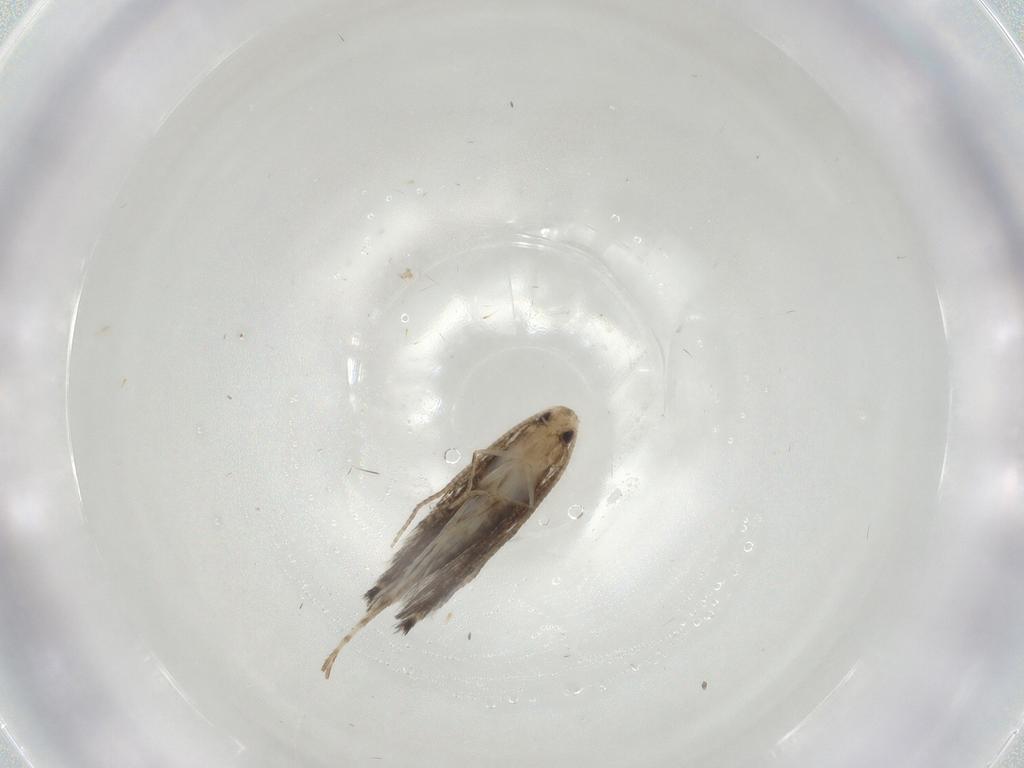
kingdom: Animalia
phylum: Arthropoda
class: Insecta
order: Lepidoptera
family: Nepticulidae
